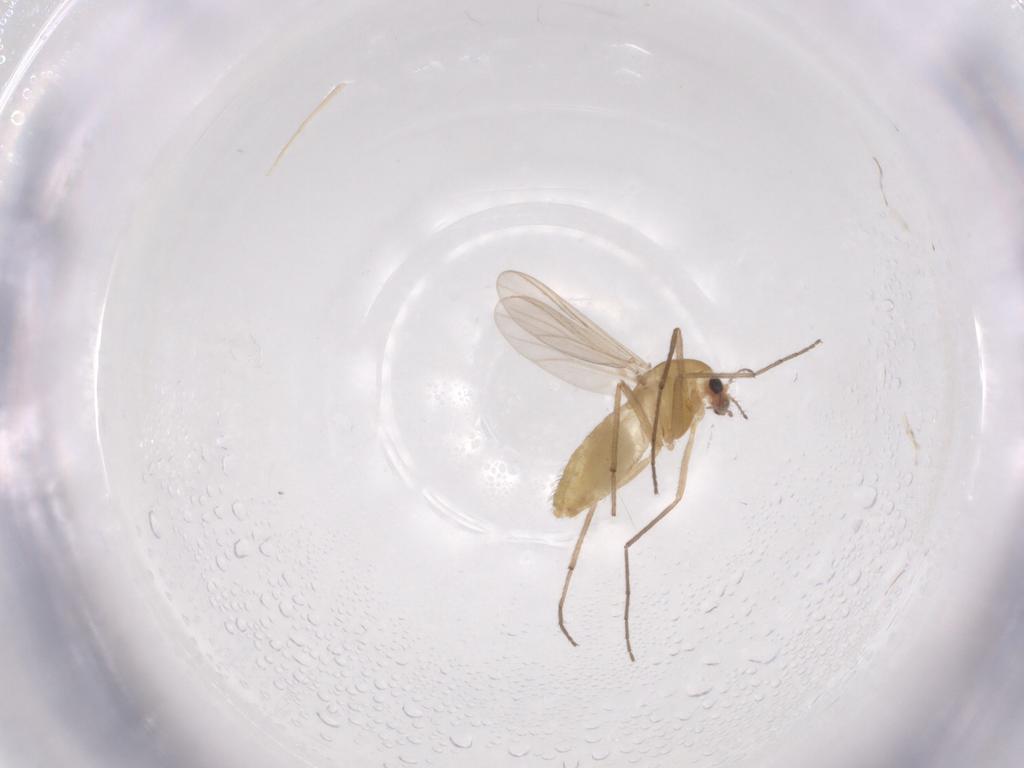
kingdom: Animalia
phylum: Arthropoda
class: Insecta
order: Diptera
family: Chironomidae
